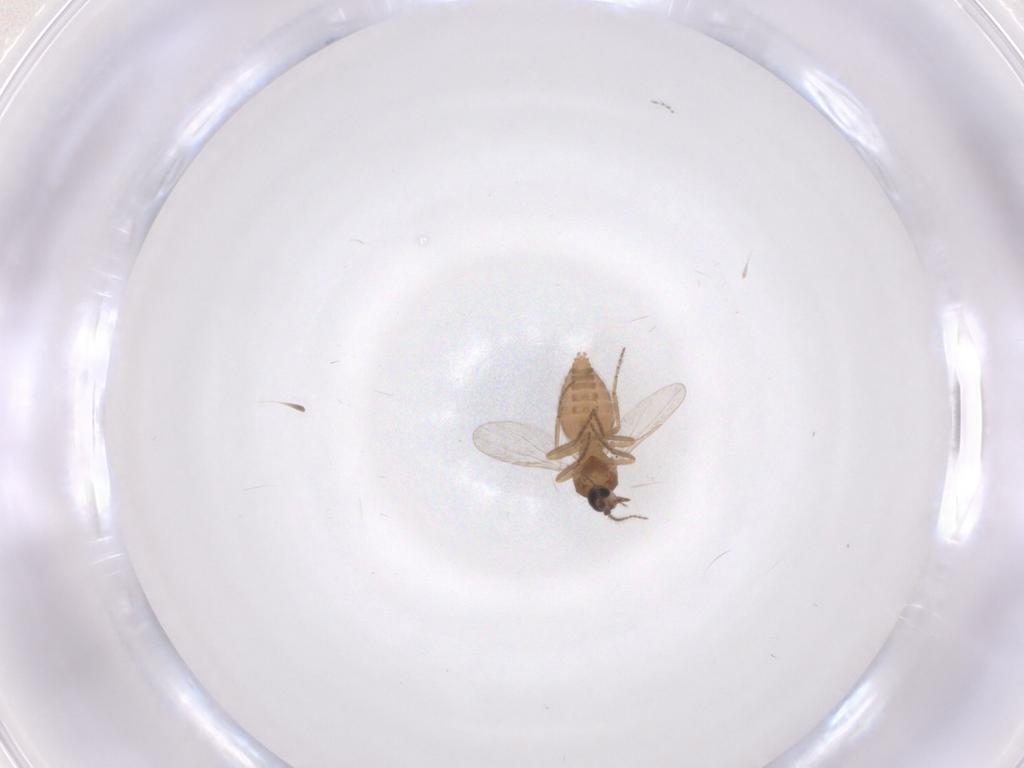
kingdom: Animalia
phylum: Arthropoda
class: Insecta
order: Diptera
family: Ceratopogonidae
